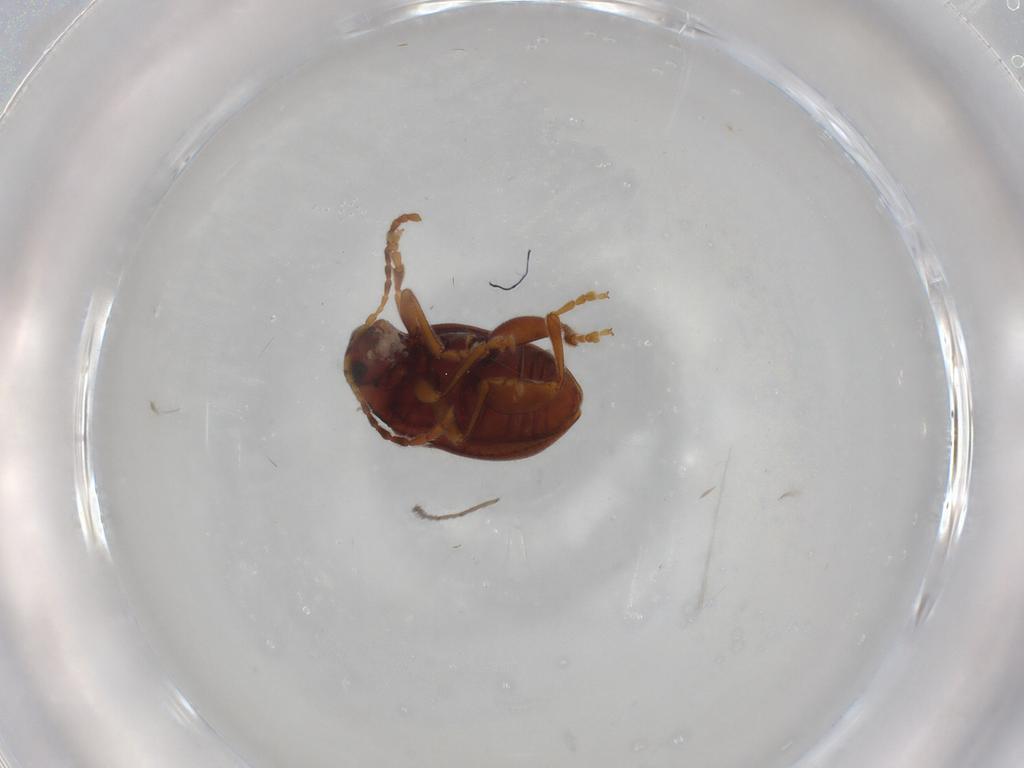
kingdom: Animalia
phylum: Arthropoda
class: Insecta
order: Coleoptera
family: Chrysomelidae
